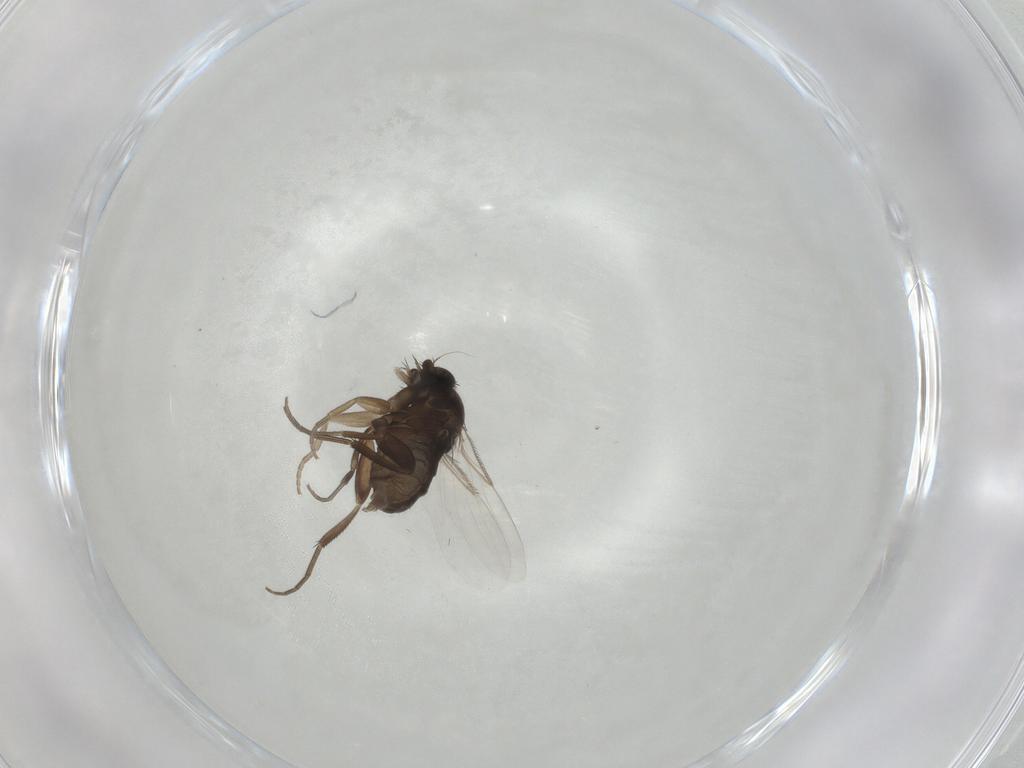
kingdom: Animalia
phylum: Arthropoda
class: Insecta
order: Diptera
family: Phoridae
